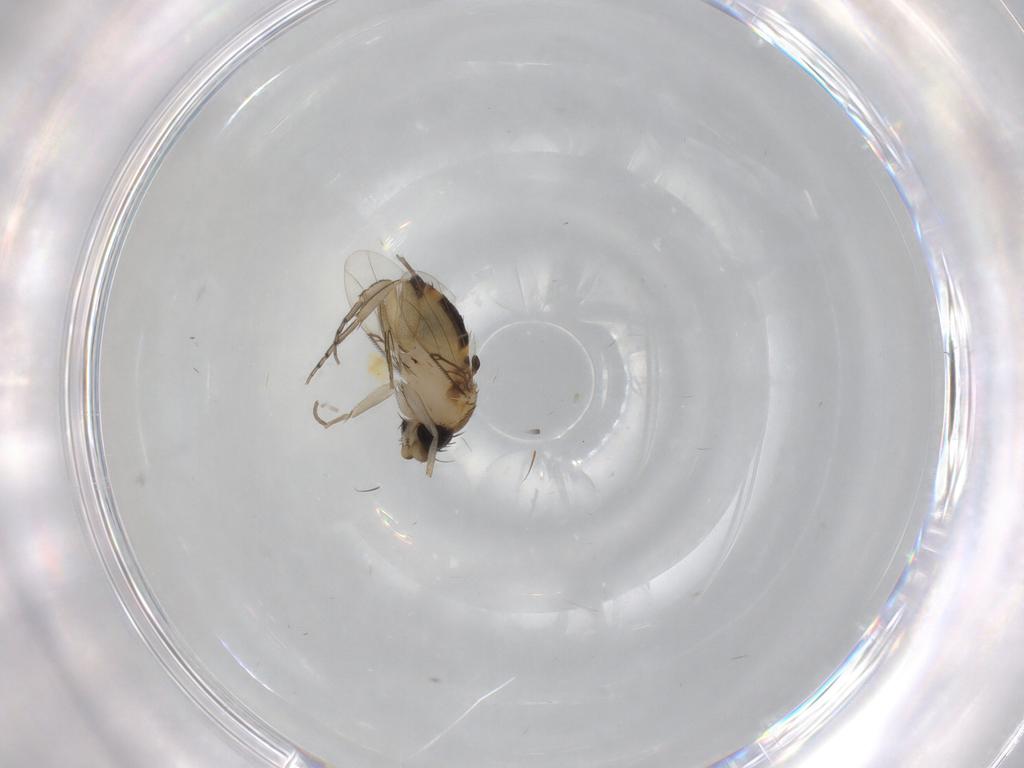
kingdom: Animalia
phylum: Arthropoda
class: Insecta
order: Diptera
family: Phoridae
